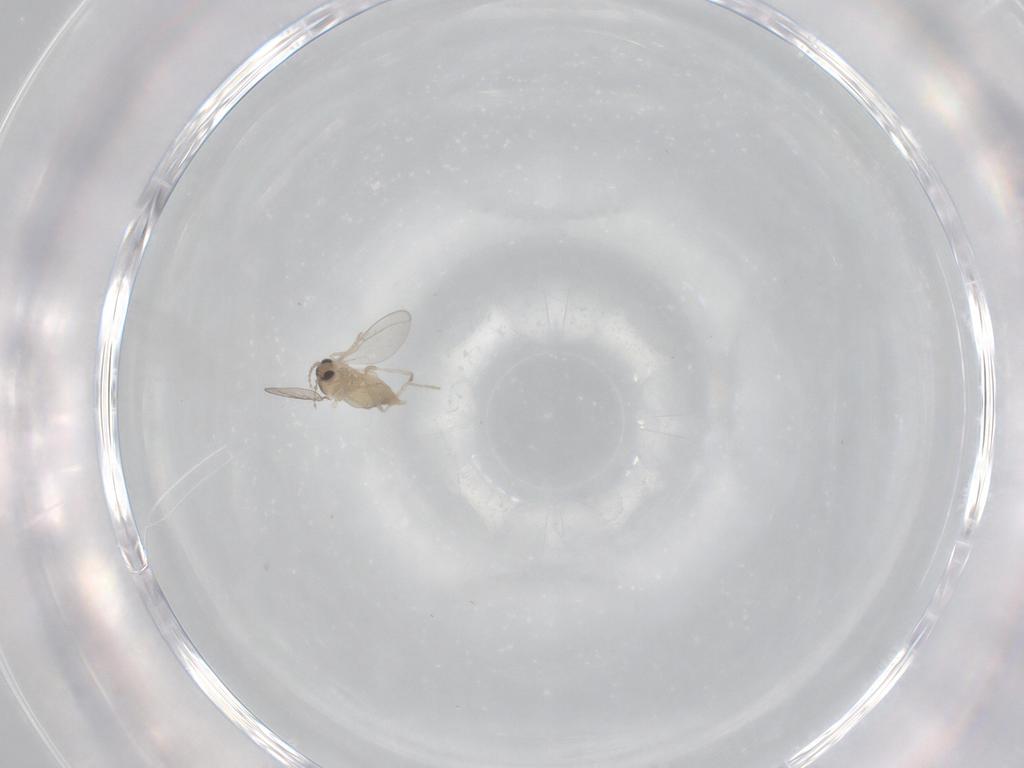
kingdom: Animalia
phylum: Arthropoda
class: Insecta
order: Diptera
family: Cecidomyiidae
